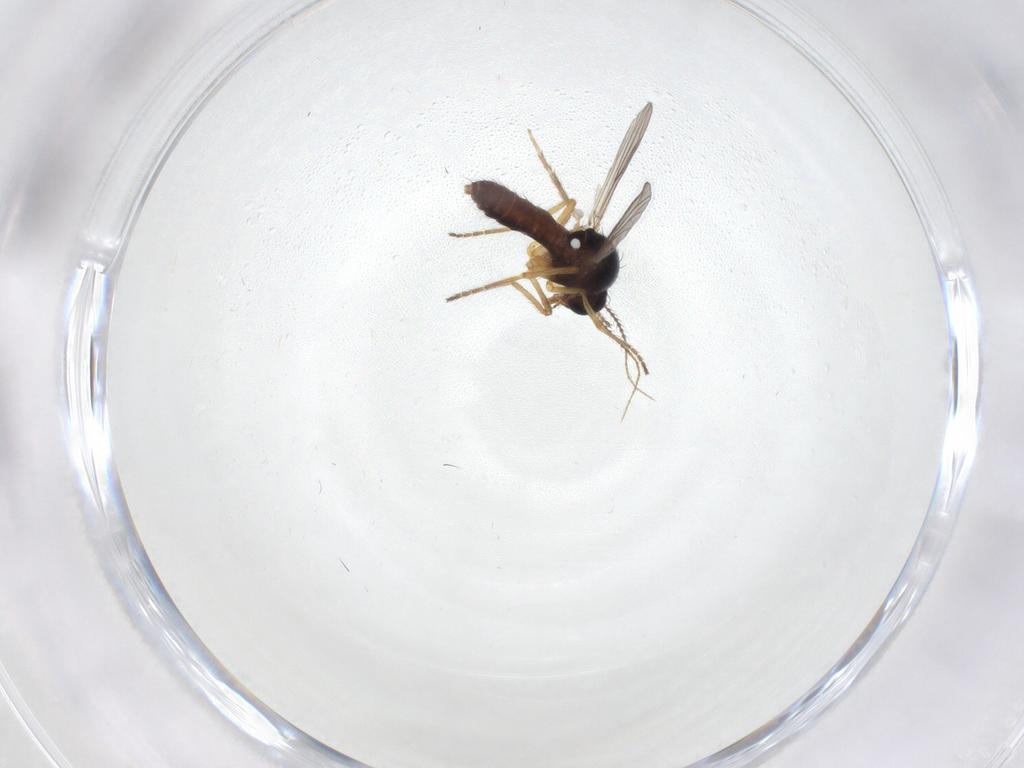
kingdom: Animalia
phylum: Arthropoda
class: Insecta
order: Diptera
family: Ceratopogonidae
